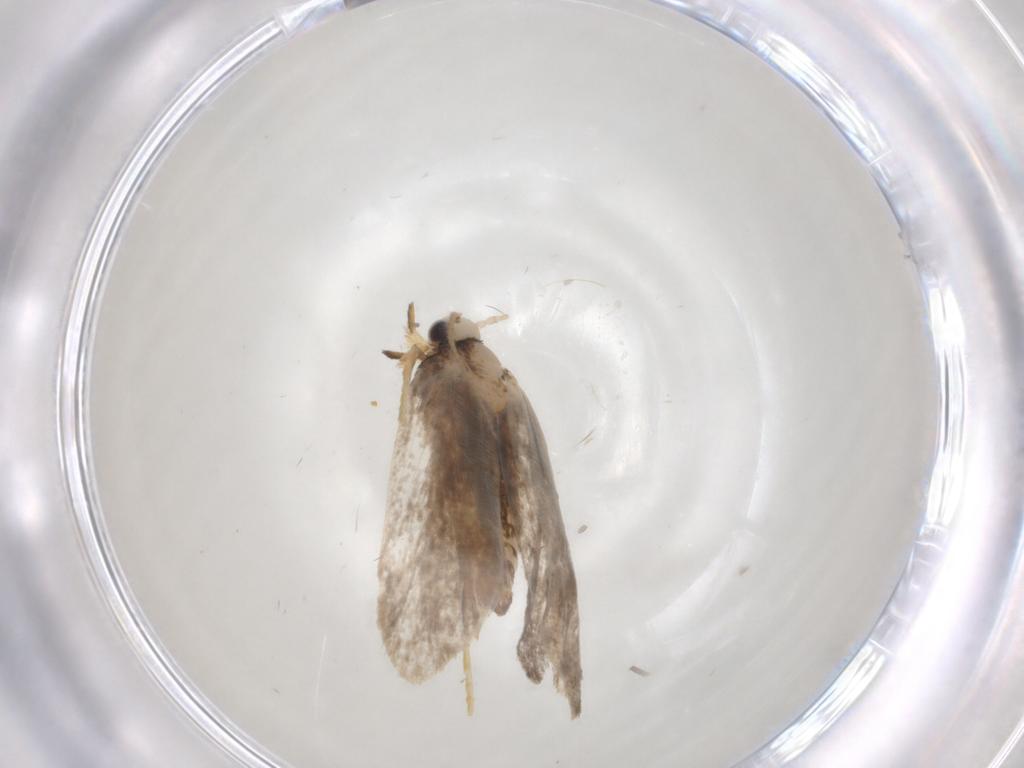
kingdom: Animalia
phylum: Arthropoda
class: Insecta
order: Lepidoptera
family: Psychidae
